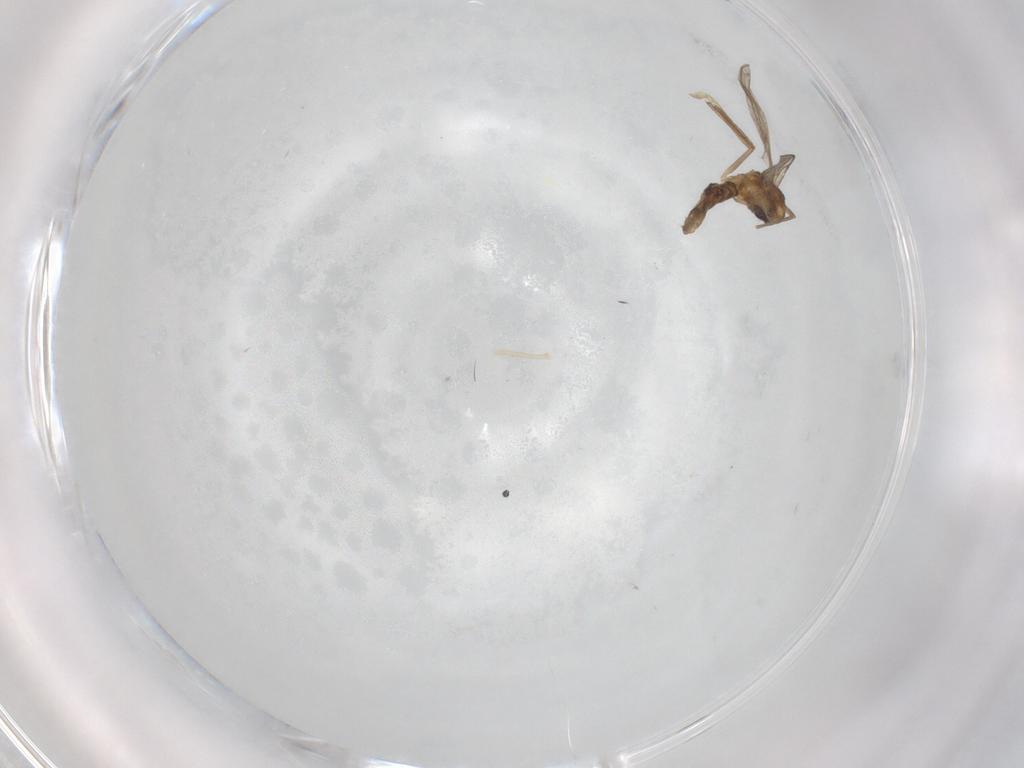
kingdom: Animalia
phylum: Arthropoda
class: Insecta
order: Diptera
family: Chironomidae
